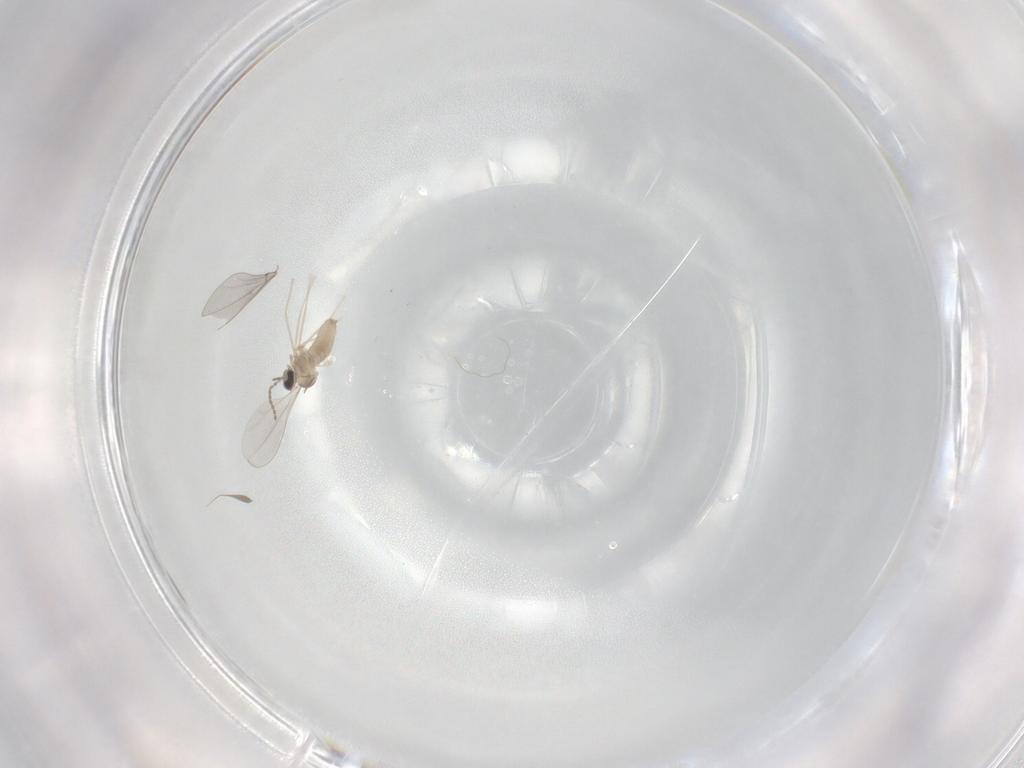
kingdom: Animalia
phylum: Arthropoda
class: Insecta
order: Diptera
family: Cecidomyiidae
